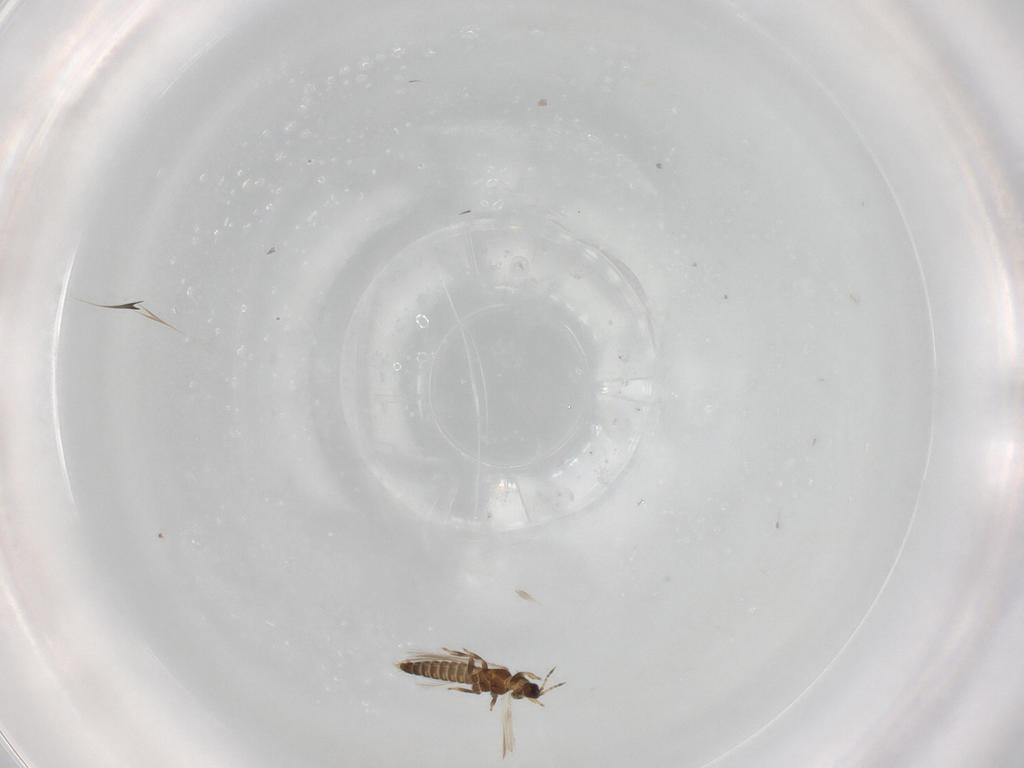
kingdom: Animalia
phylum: Arthropoda
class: Insecta
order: Thysanoptera
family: Thripidae
